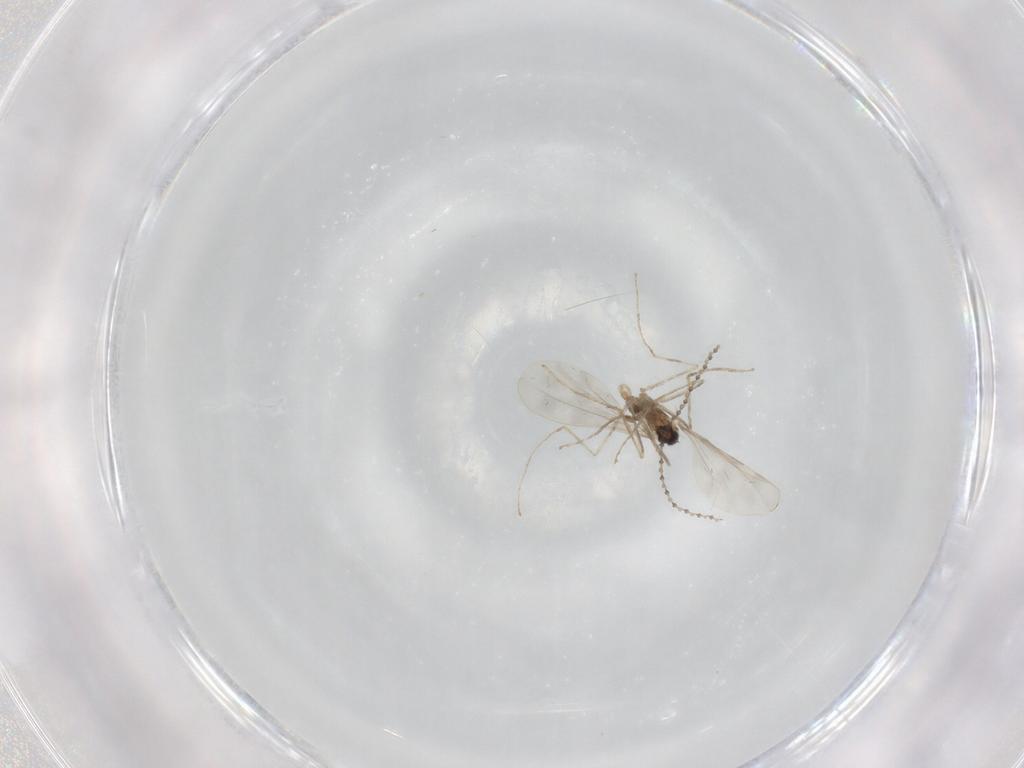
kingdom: Animalia
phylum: Arthropoda
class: Insecta
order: Diptera
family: Cecidomyiidae
